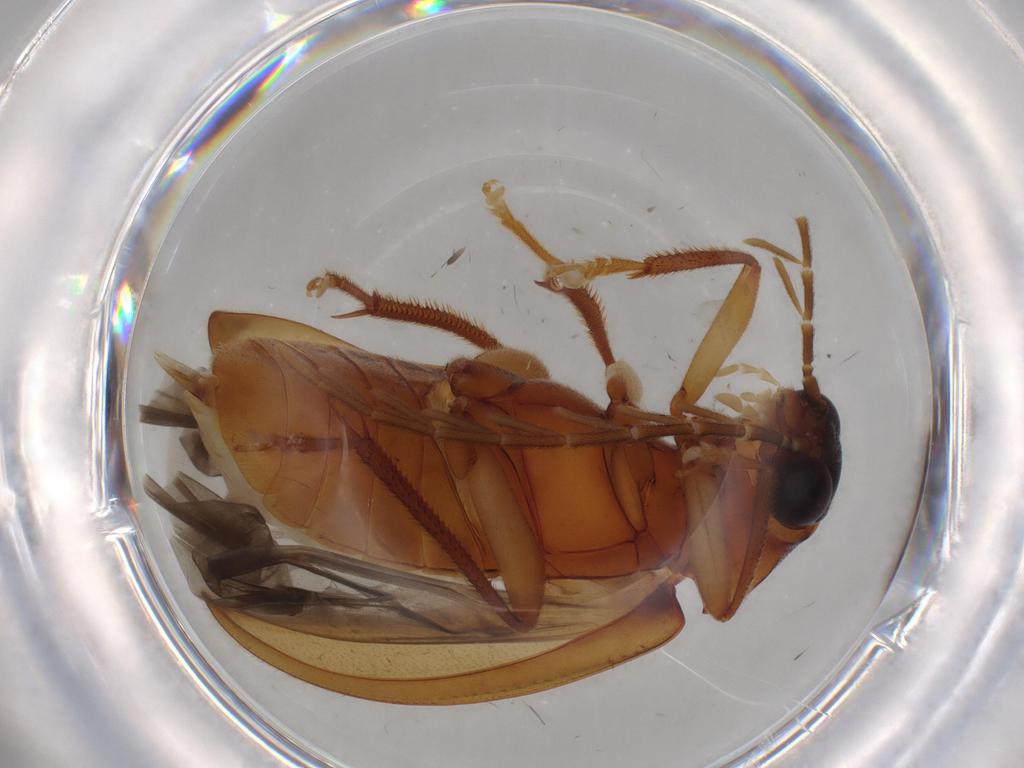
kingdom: Animalia
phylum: Arthropoda
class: Insecta
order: Coleoptera
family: Ptilodactylidae
